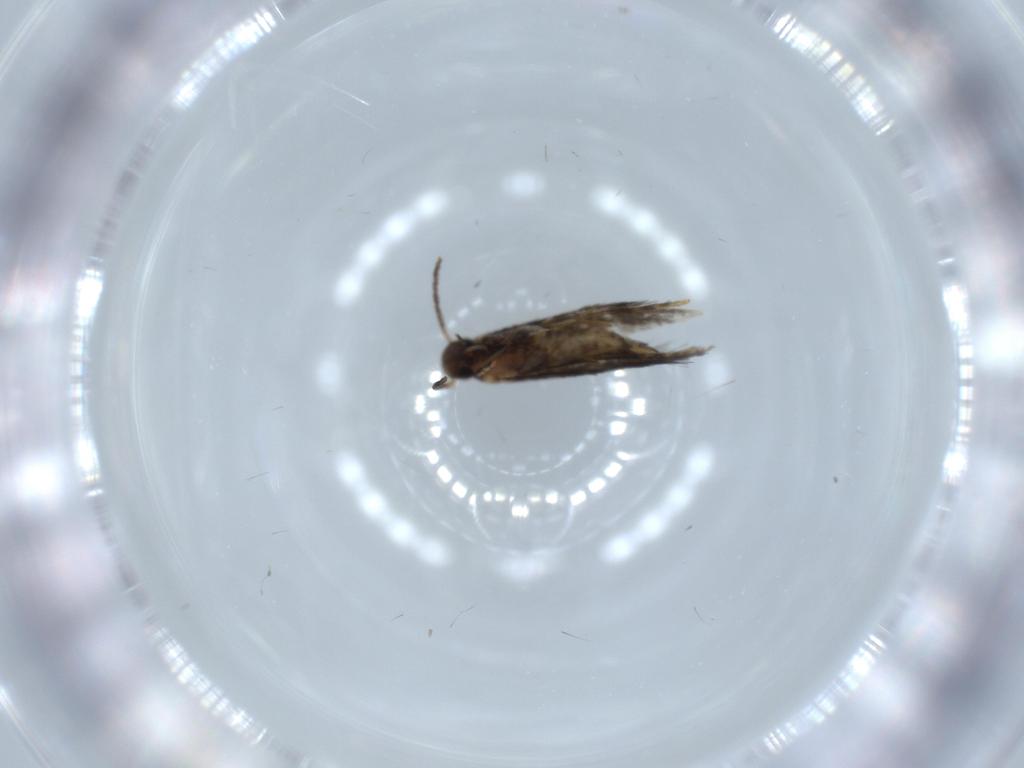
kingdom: Animalia
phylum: Arthropoda
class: Insecta
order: Lepidoptera
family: Heliozelidae
